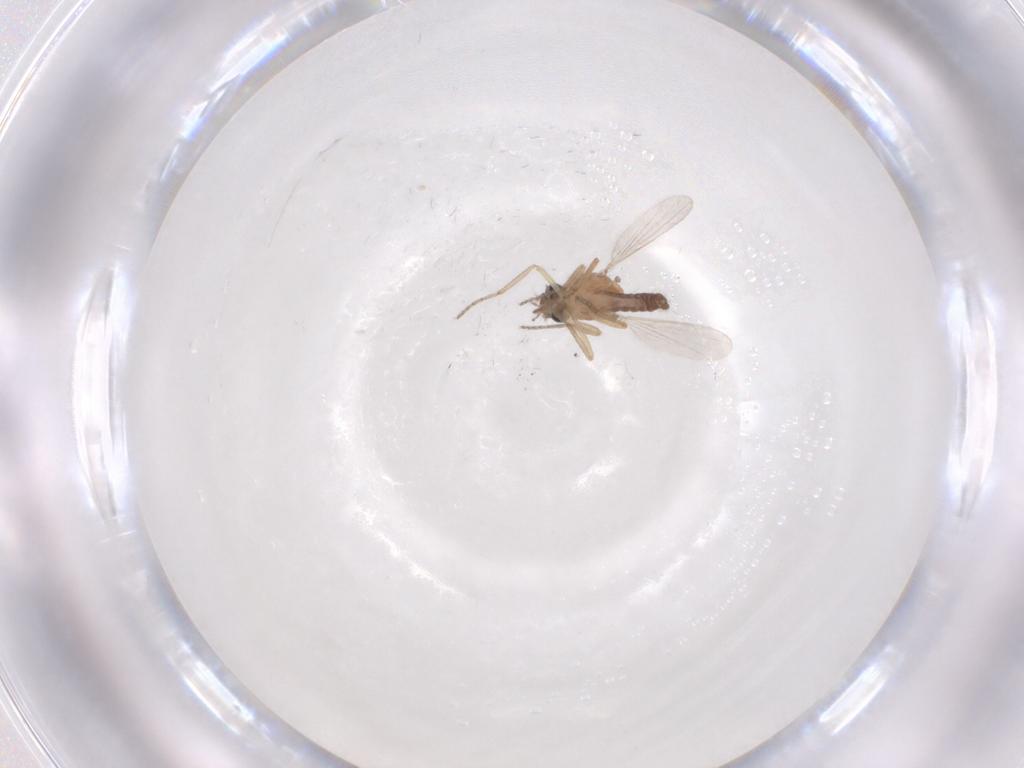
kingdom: Animalia
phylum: Arthropoda
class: Insecta
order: Diptera
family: Ceratopogonidae
